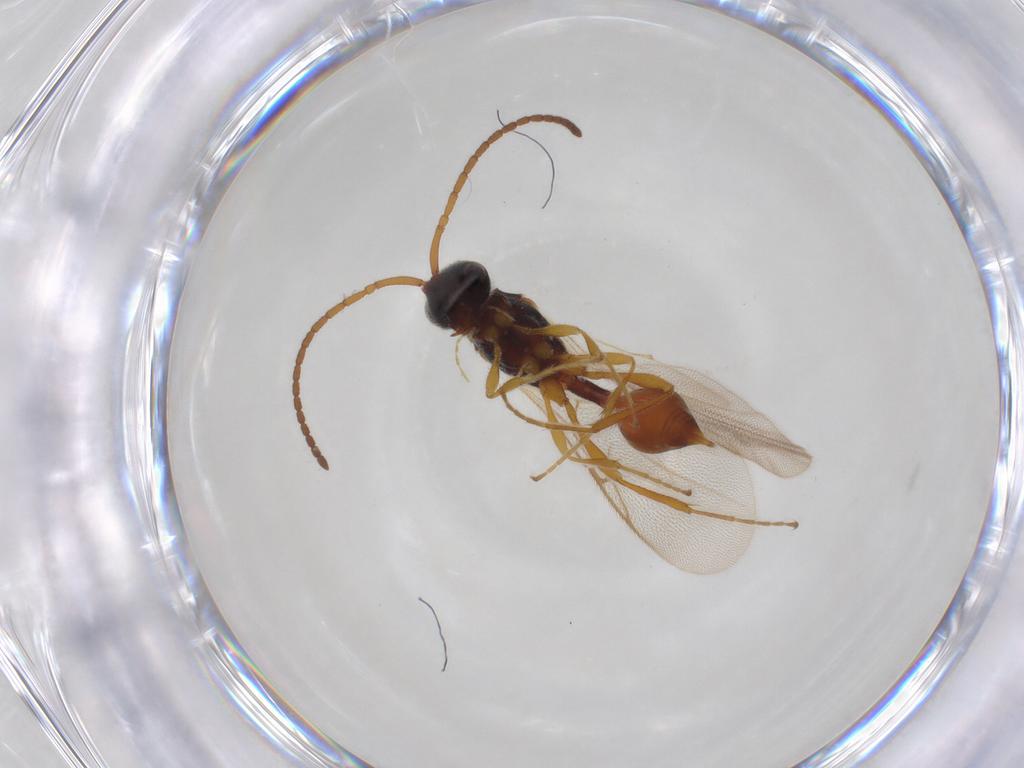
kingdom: Animalia
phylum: Arthropoda
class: Insecta
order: Hymenoptera
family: Diapriidae
